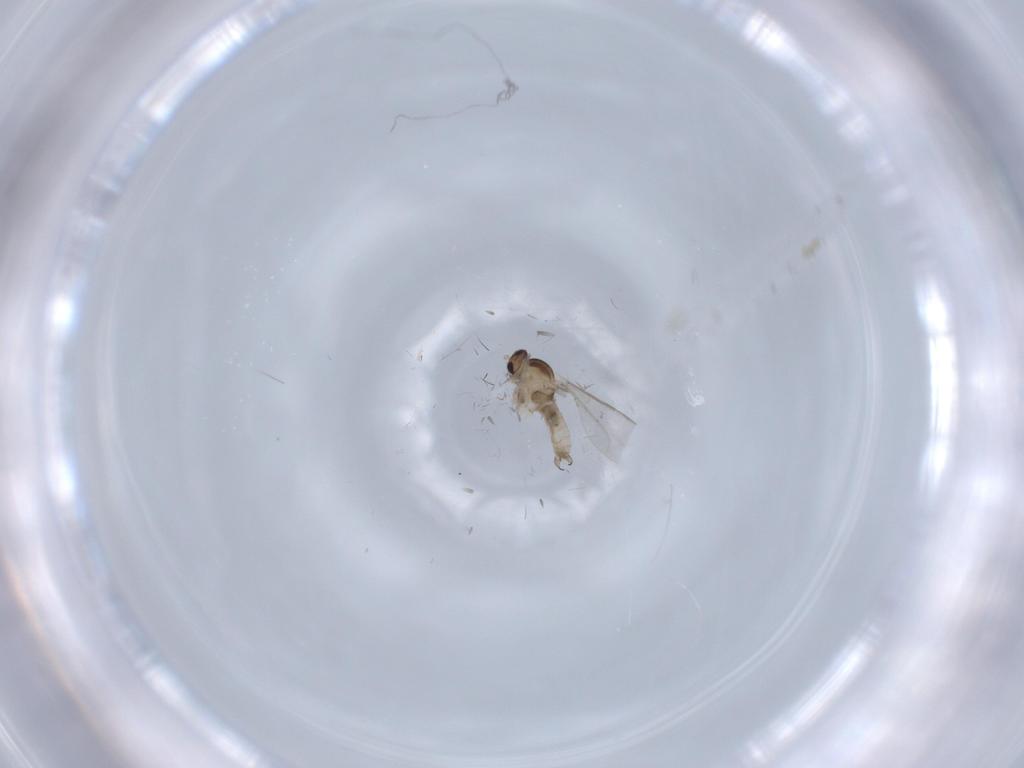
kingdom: Animalia
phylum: Arthropoda
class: Insecta
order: Diptera
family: Cecidomyiidae
